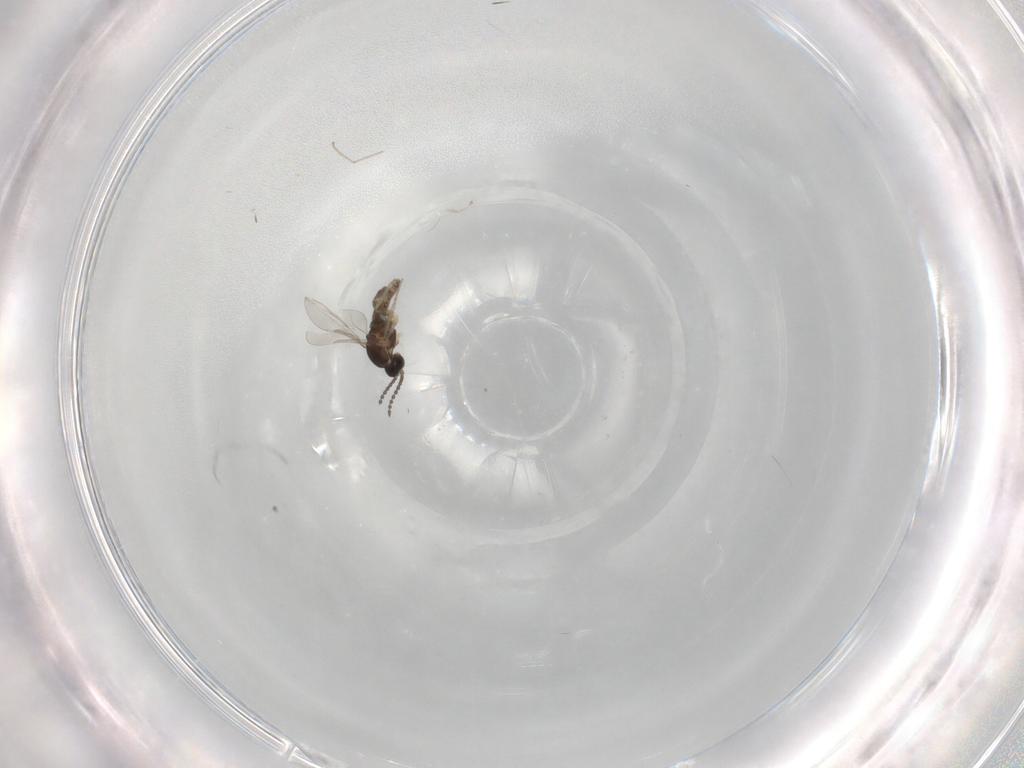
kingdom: Animalia
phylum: Arthropoda
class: Insecta
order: Diptera
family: Cecidomyiidae
